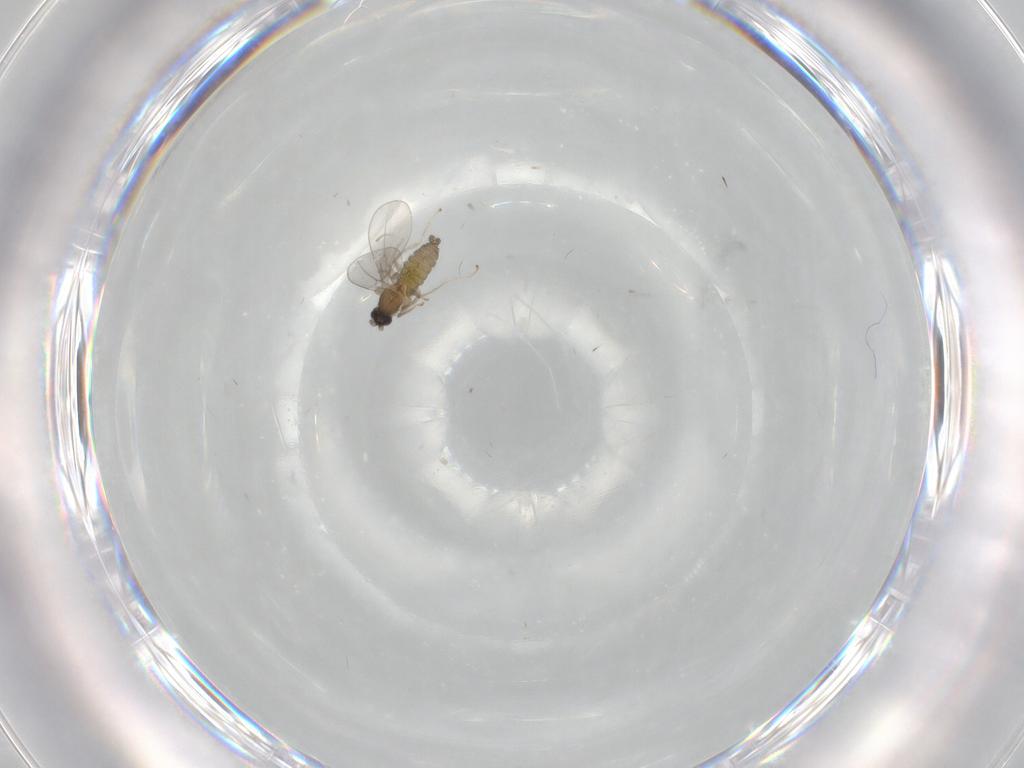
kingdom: Animalia
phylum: Arthropoda
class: Insecta
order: Diptera
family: Cecidomyiidae
